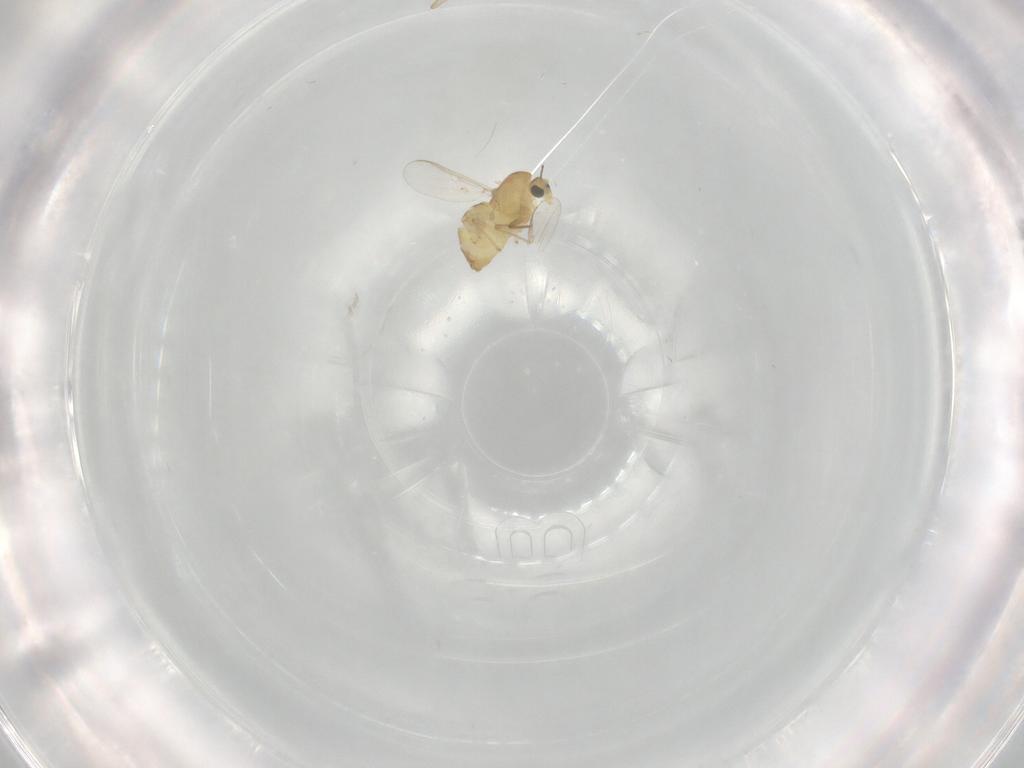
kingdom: Animalia
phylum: Arthropoda
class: Insecta
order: Diptera
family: Chironomidae
